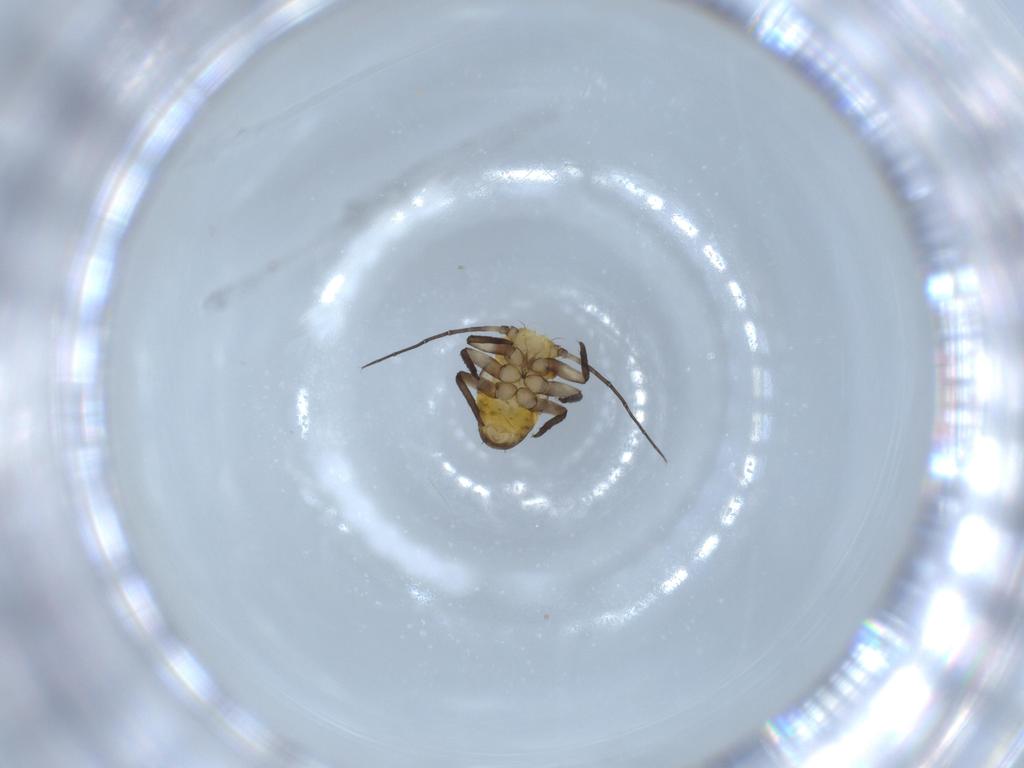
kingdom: Animalia
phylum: Arthropoda
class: Insecta
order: Hemiptera
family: Psyllidae
